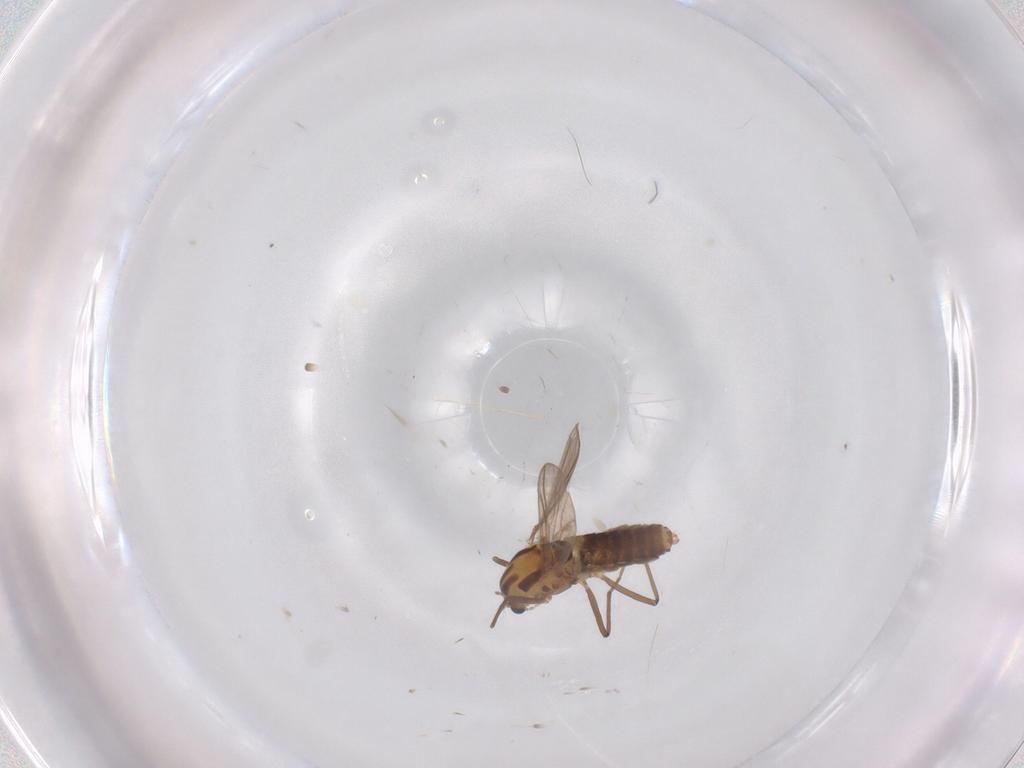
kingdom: Animalia
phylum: Arthropoda
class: Insecta
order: Diptera
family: Chironomidae
